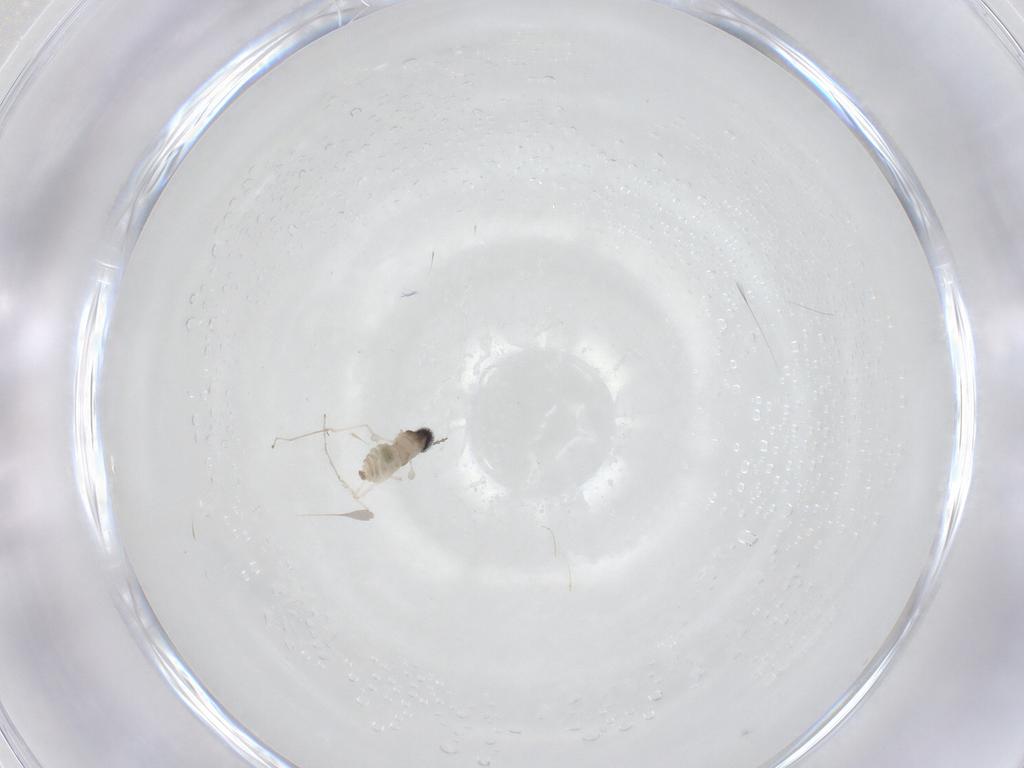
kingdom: Animalia
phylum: Arthropoda
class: Insecta
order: Diptera
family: Cecidomyiidae
